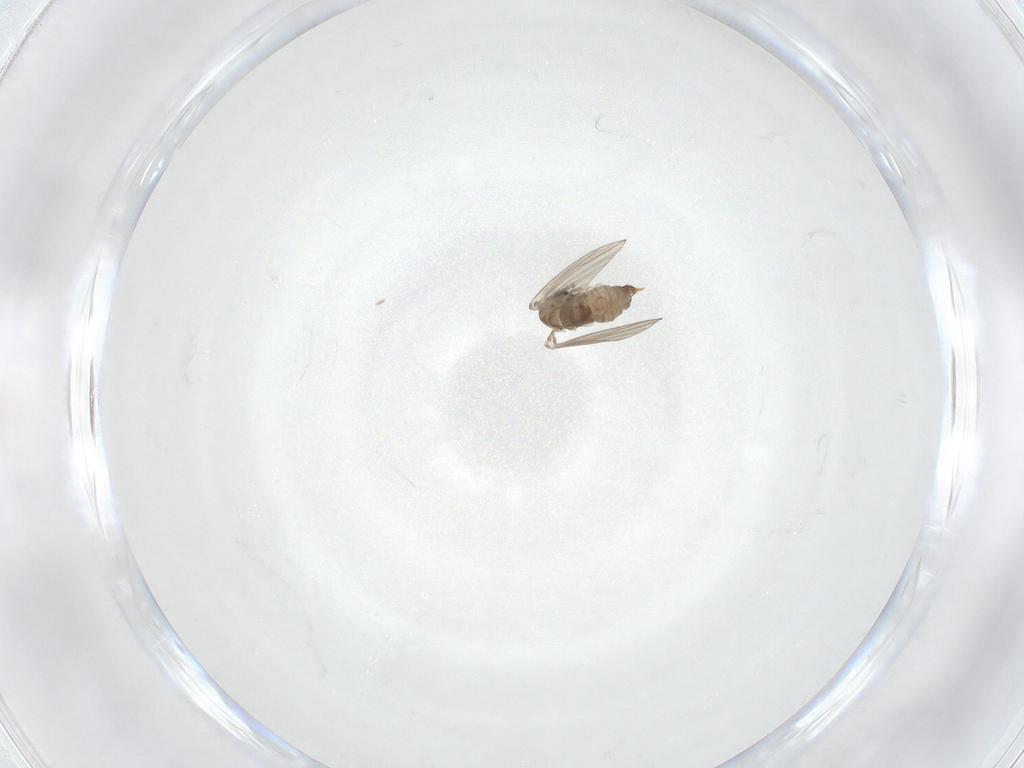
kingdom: Animalia
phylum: Arthropoda
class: Insecta
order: Diptera
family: Psychodidae
